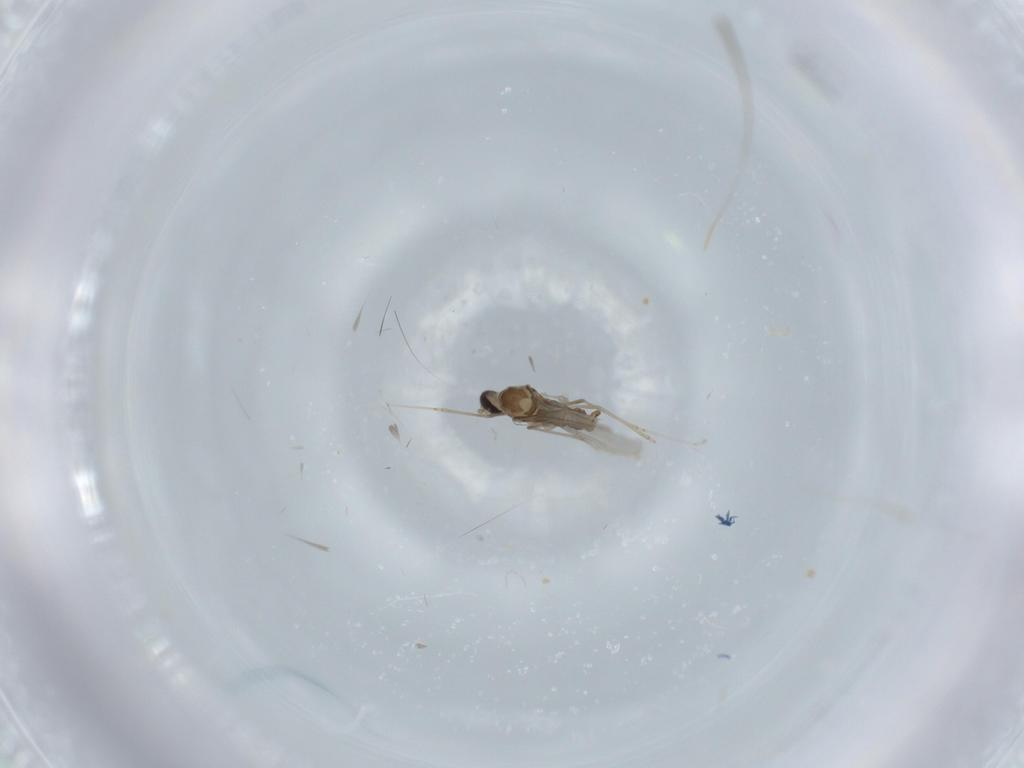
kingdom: Animalia
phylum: Arthropoda
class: Insecta
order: Diptera
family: Cecidomyiidae
